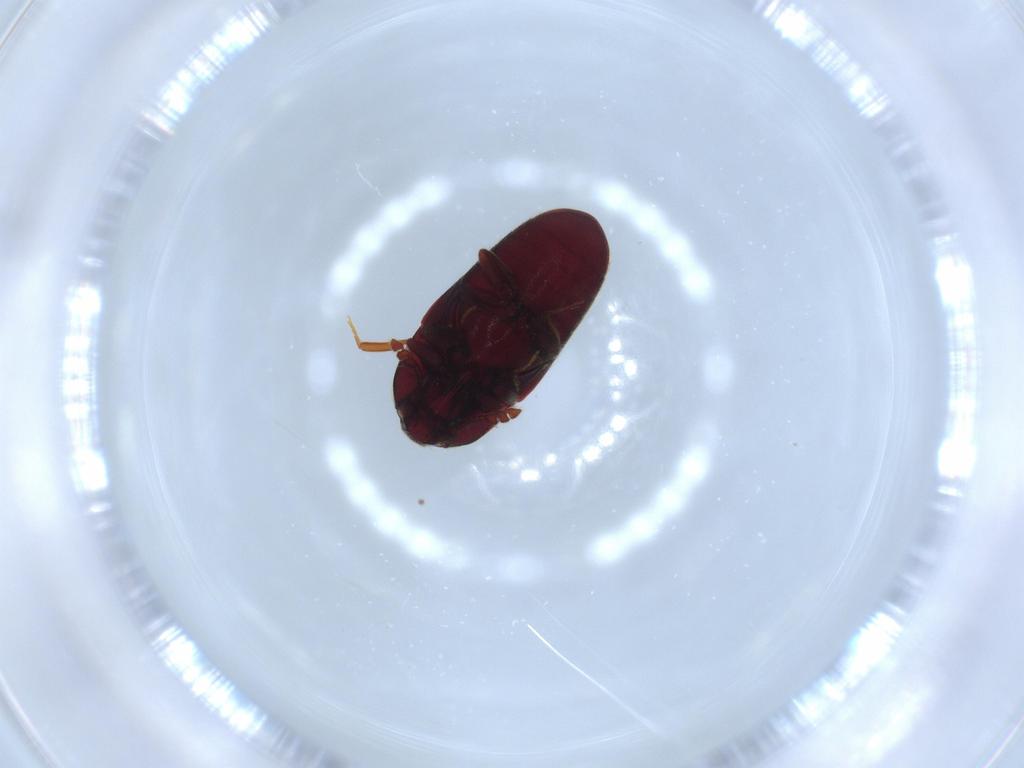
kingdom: Animalia
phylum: Arthropoda
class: Insecta
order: Coleoptera
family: Throscidae
